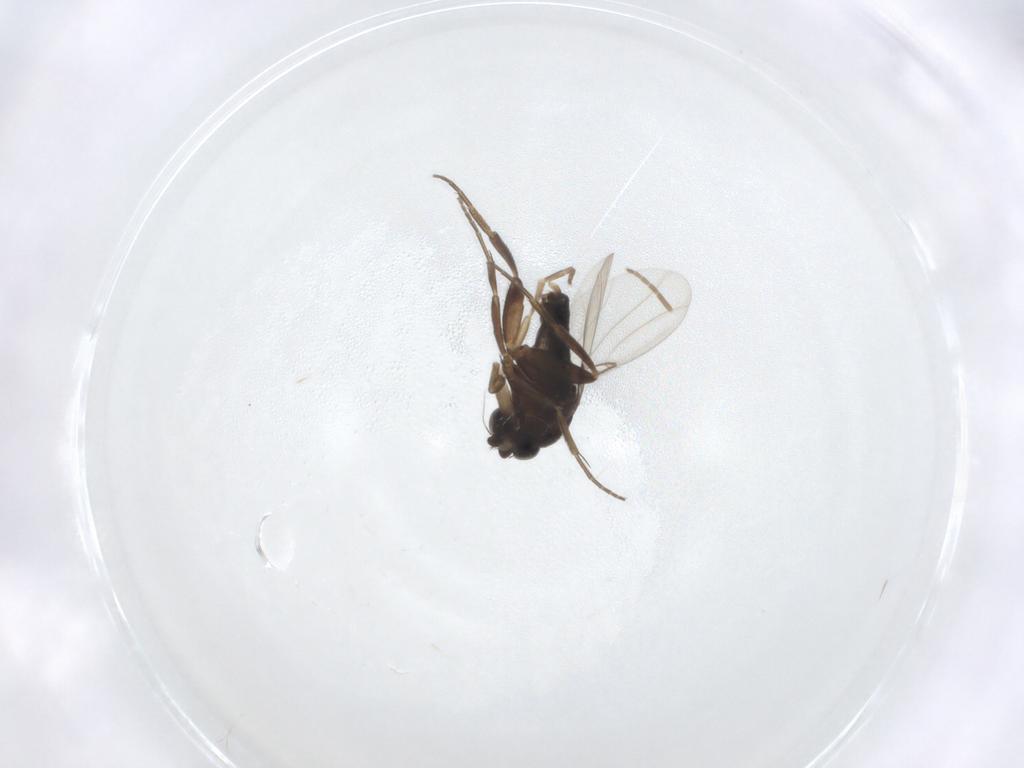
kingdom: Animalia
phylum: Arthropoda
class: Insecta
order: Diptera
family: Phoridae
